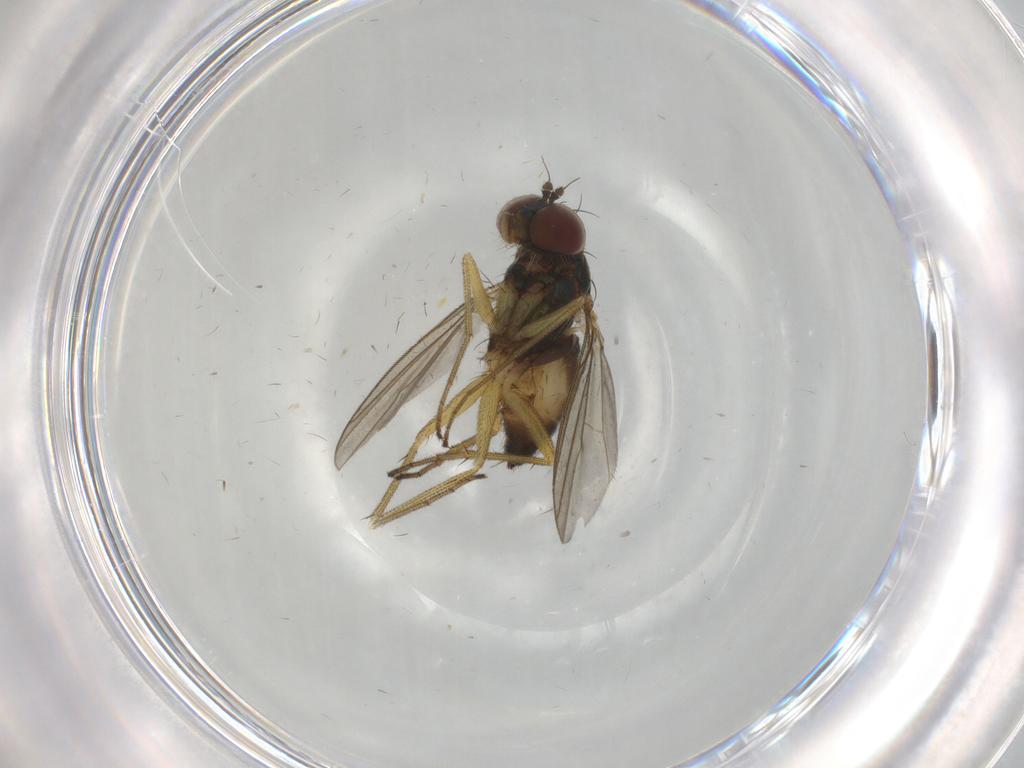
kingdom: Animalia
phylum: Arthropoda
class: Insecta
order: Diptera
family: Dolichopodidae
